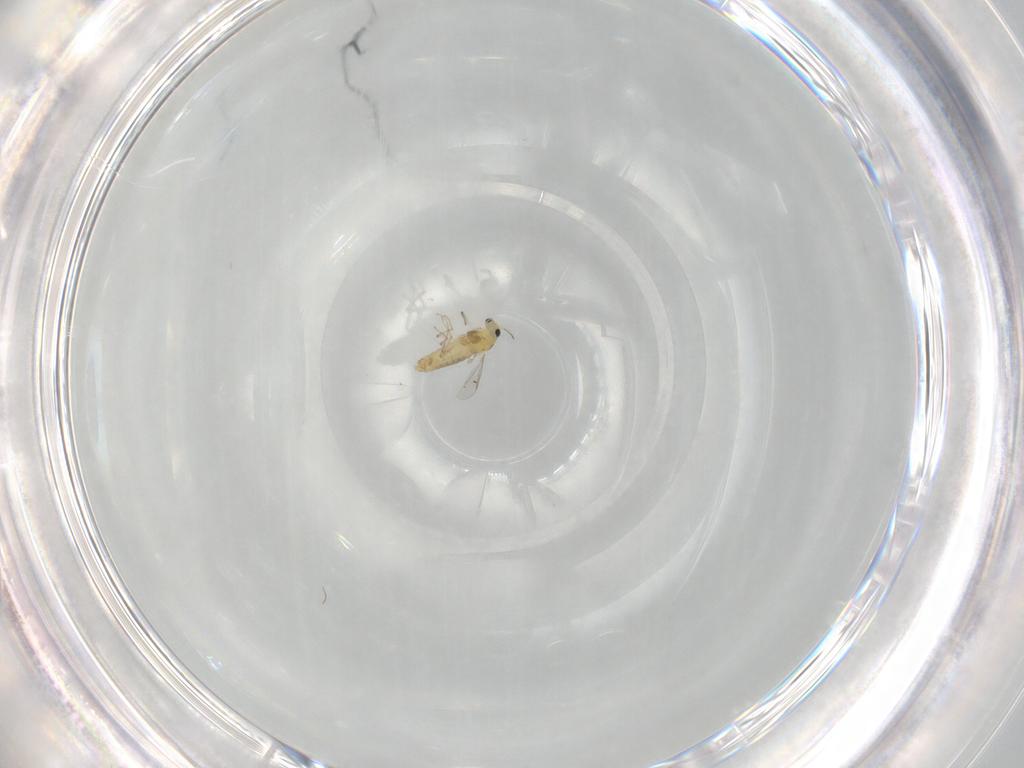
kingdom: Animalia
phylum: Arthropoda
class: Insecta
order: Diptera
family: Chironomidae
